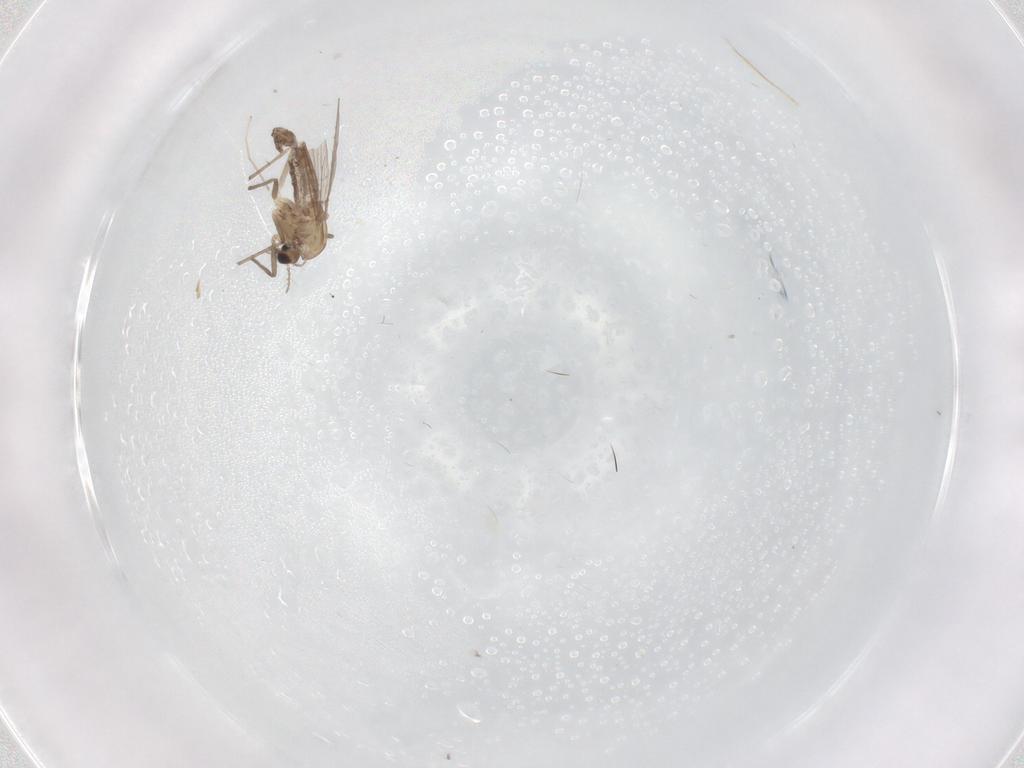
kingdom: Animalia
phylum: Arthropoda
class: Insecta
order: Diptera
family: Chironomidae
